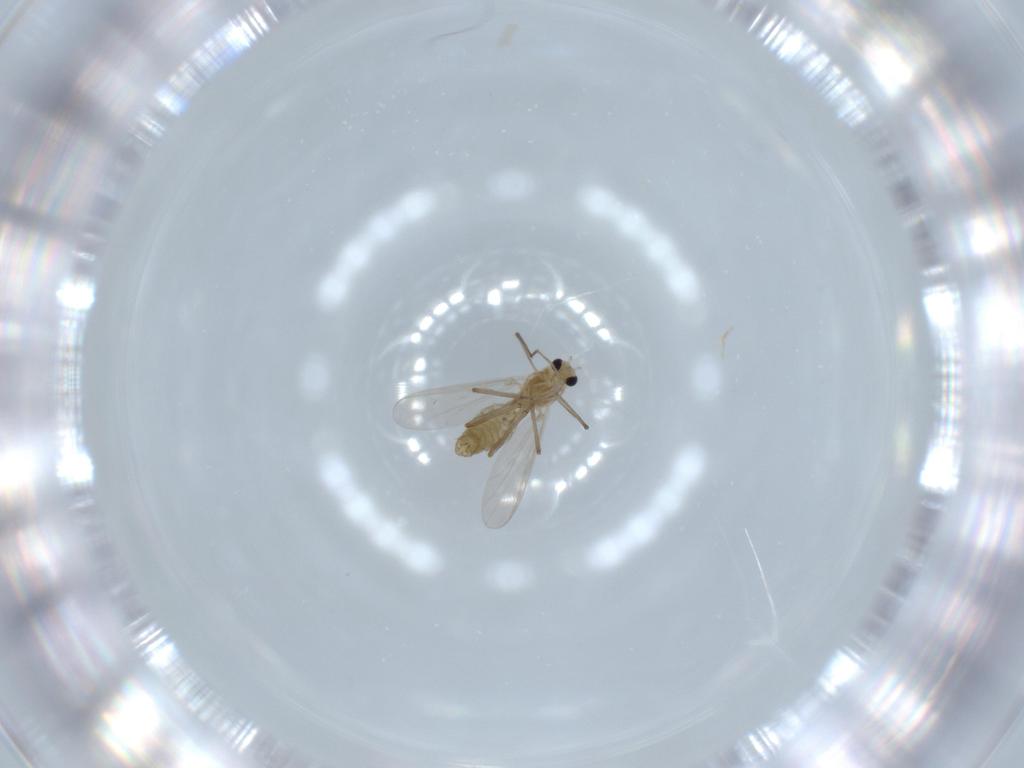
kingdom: Animalia
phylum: Arthropoda
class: Insecta
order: Diptera
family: Chironomidae
